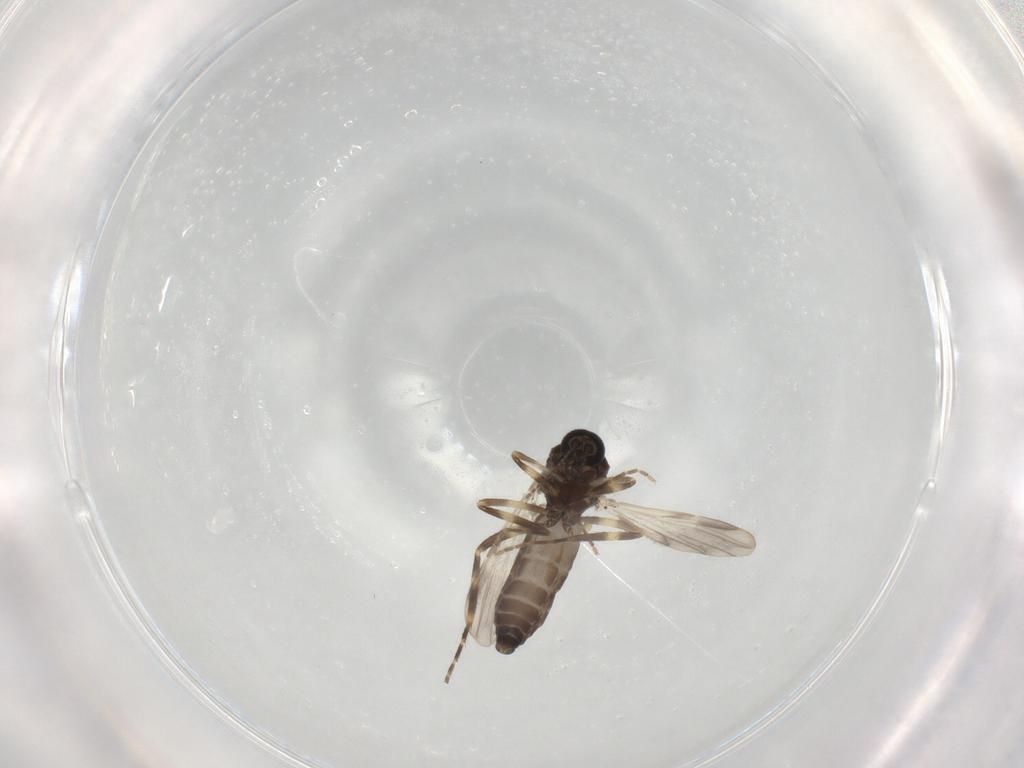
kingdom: Animalia
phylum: Arthropoda
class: Insecta
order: Diptera
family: Ceratopogonidae
